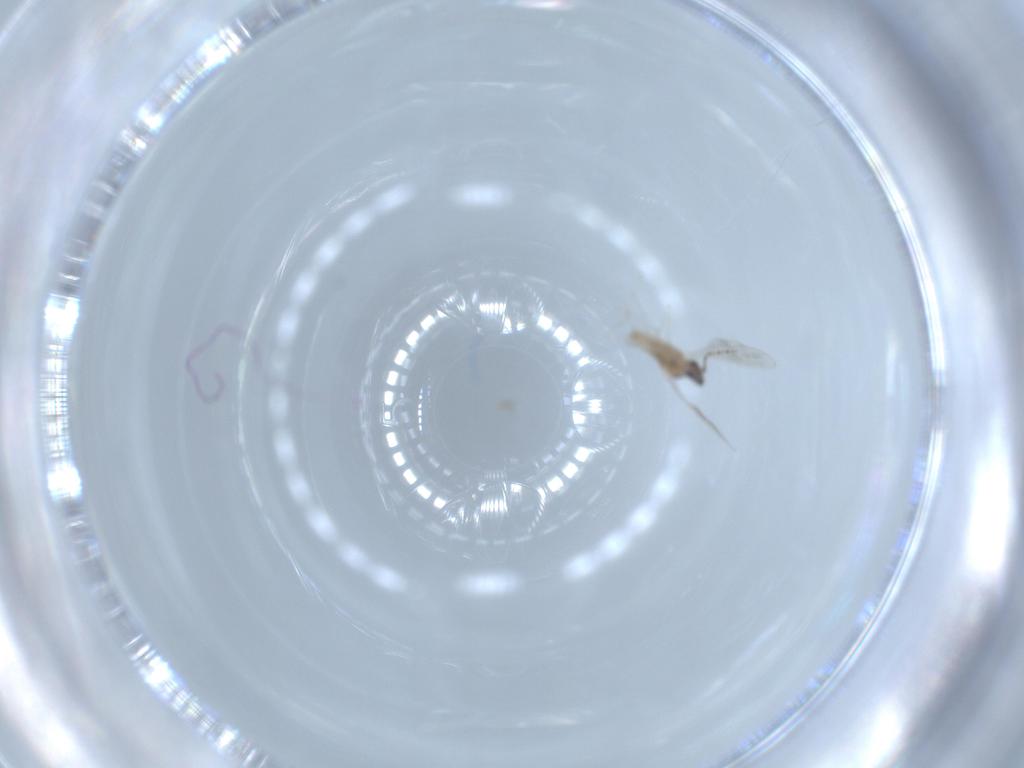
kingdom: Animalia
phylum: Arthropoda
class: Insecta
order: Diptera
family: Cecidomyiidae
